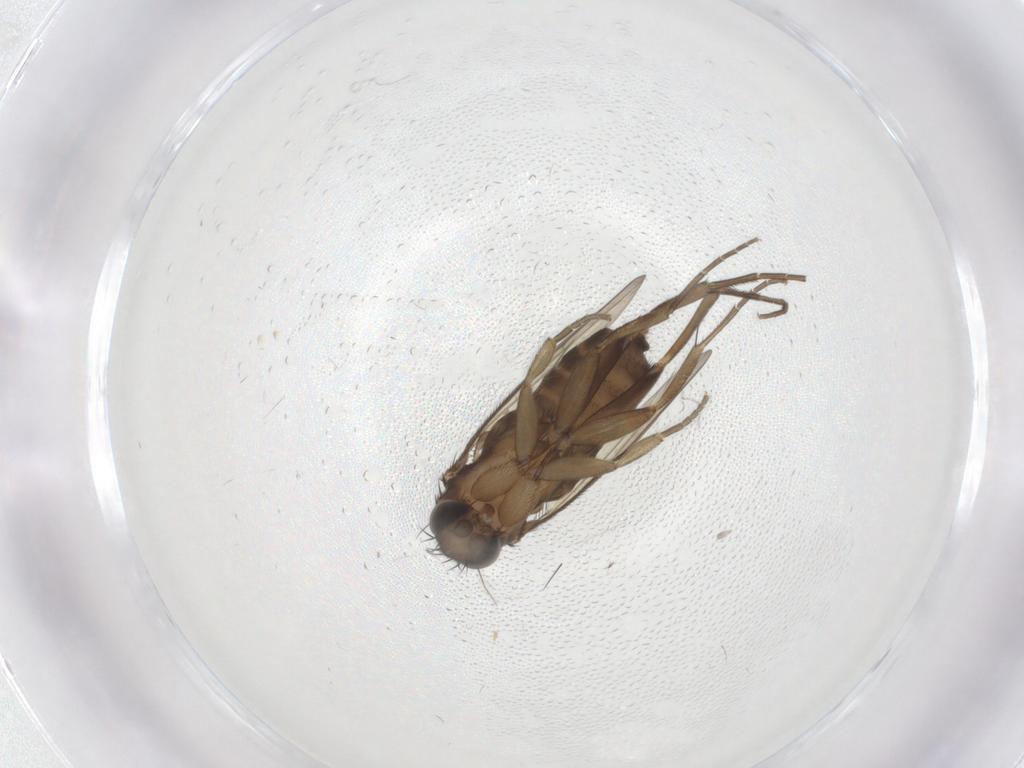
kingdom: Animalia
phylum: Arthropoda
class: Insecta
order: Diptera
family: Phoridae
